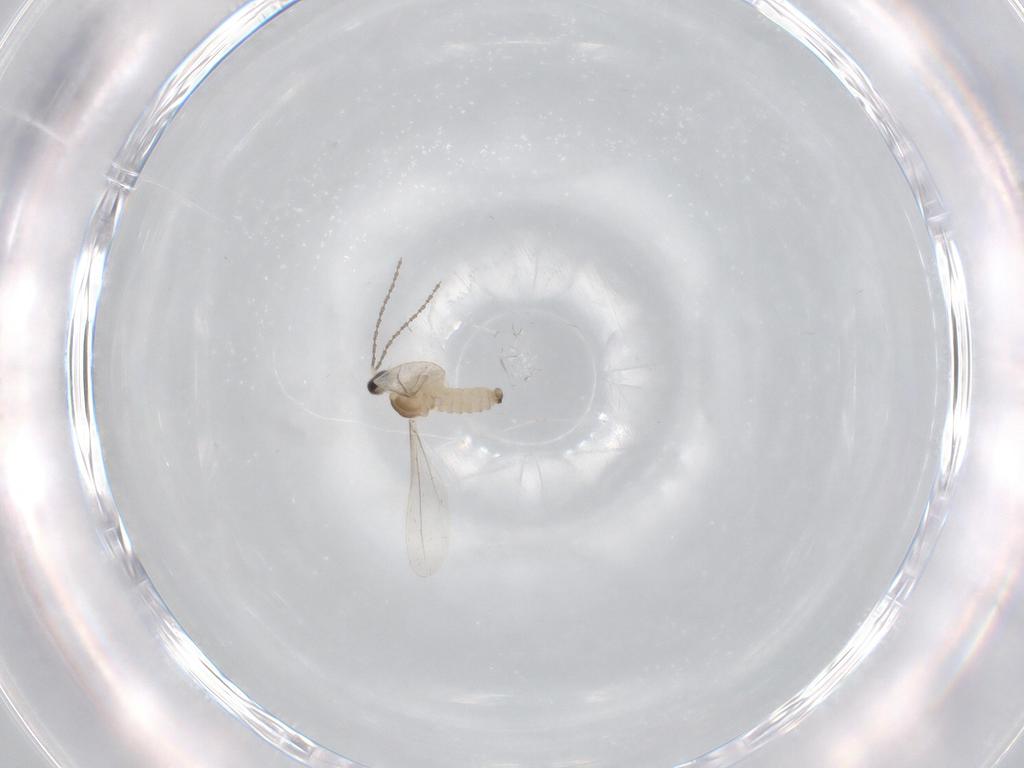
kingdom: Animalia
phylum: Arthropoda
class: Insecta
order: Diptera
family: Cecidomyiidae
